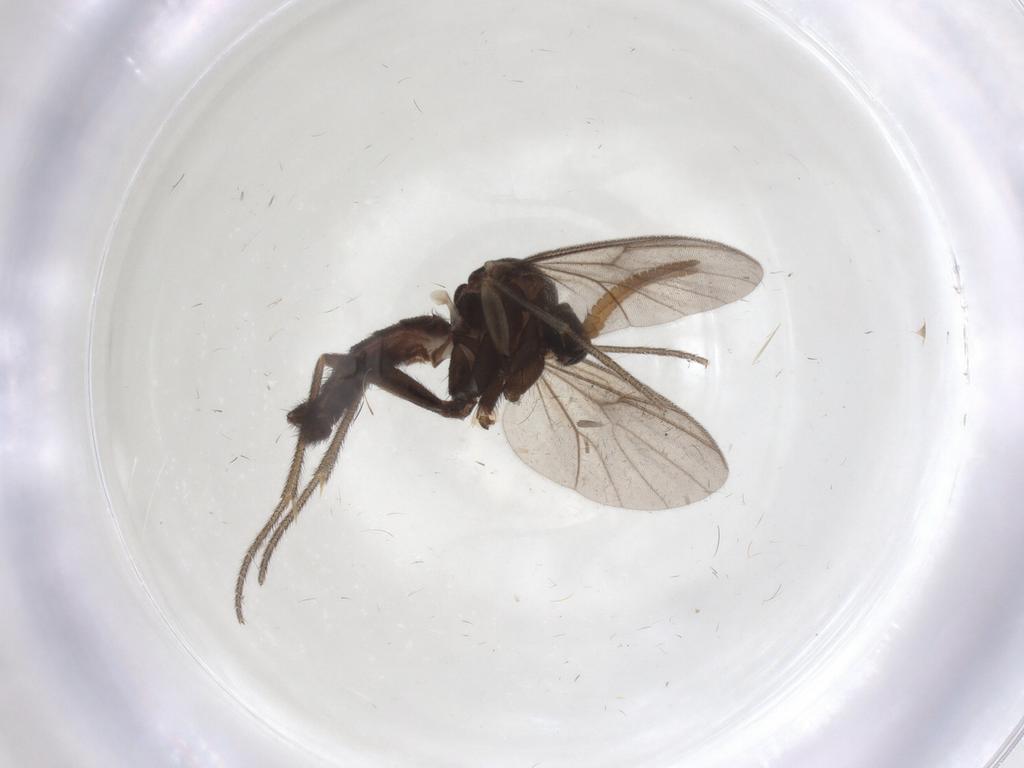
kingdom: Animalia
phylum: Arthropoda
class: Insecta
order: Diptera
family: Mycetophilidae
